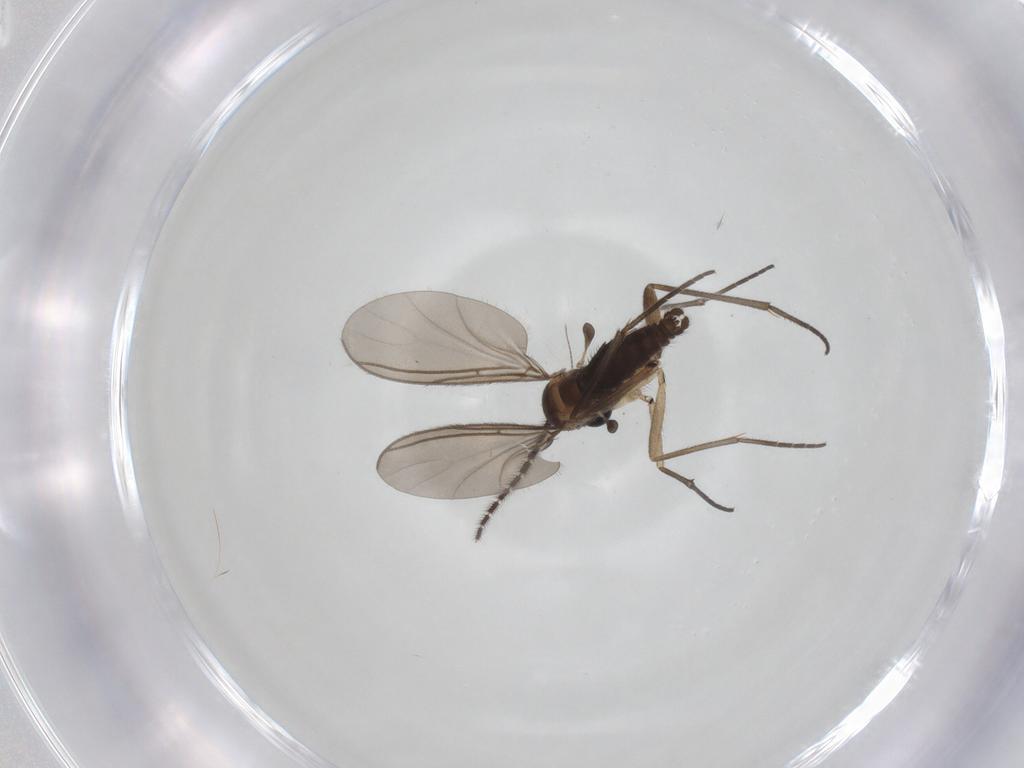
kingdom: Animalia
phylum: Arthropoda
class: Insecta
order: Diptera
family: Sciaridae
